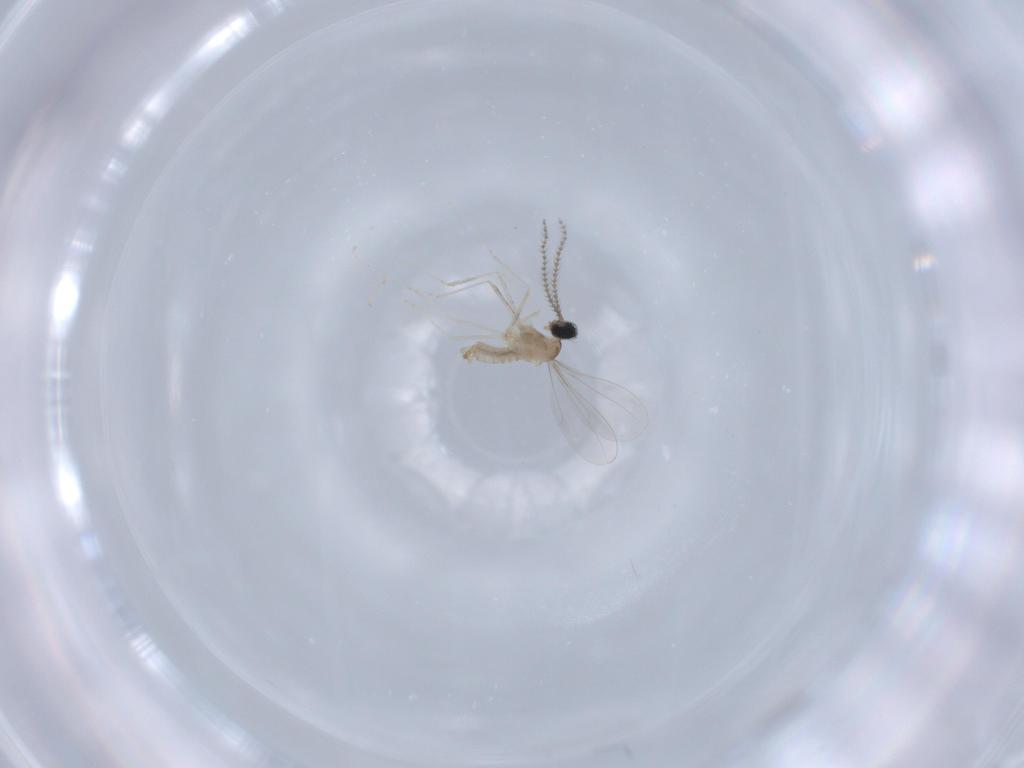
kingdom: Animalia
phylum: Arthropoda
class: Insecta
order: Diptera
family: Cecidomyiidae
